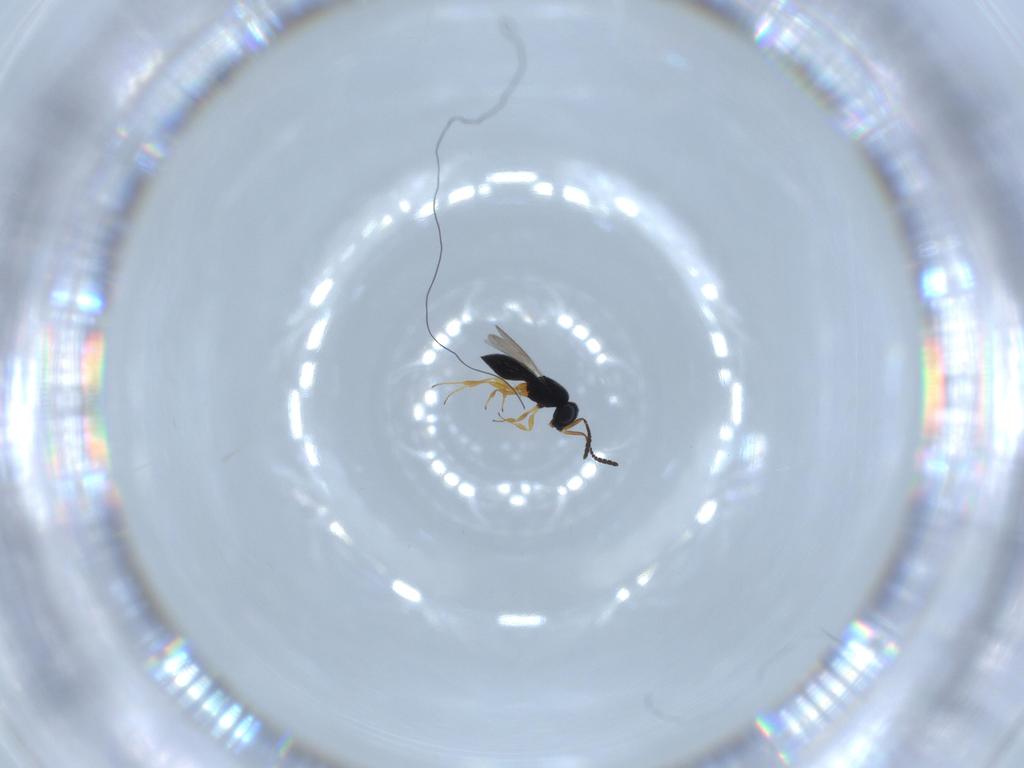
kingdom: Animalia
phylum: Arthropoda
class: Insecta
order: Hymenoptera
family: Scelionidae
